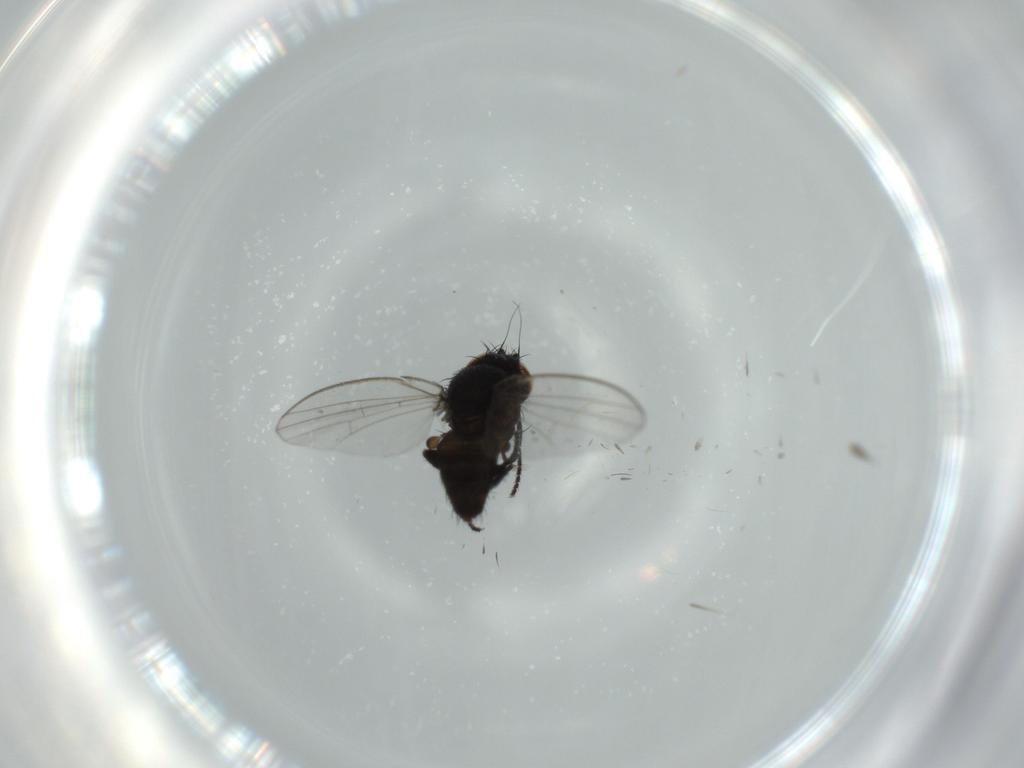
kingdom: Animalia
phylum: Arthropoda
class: Insecta
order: Diptera
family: Milichiidae
